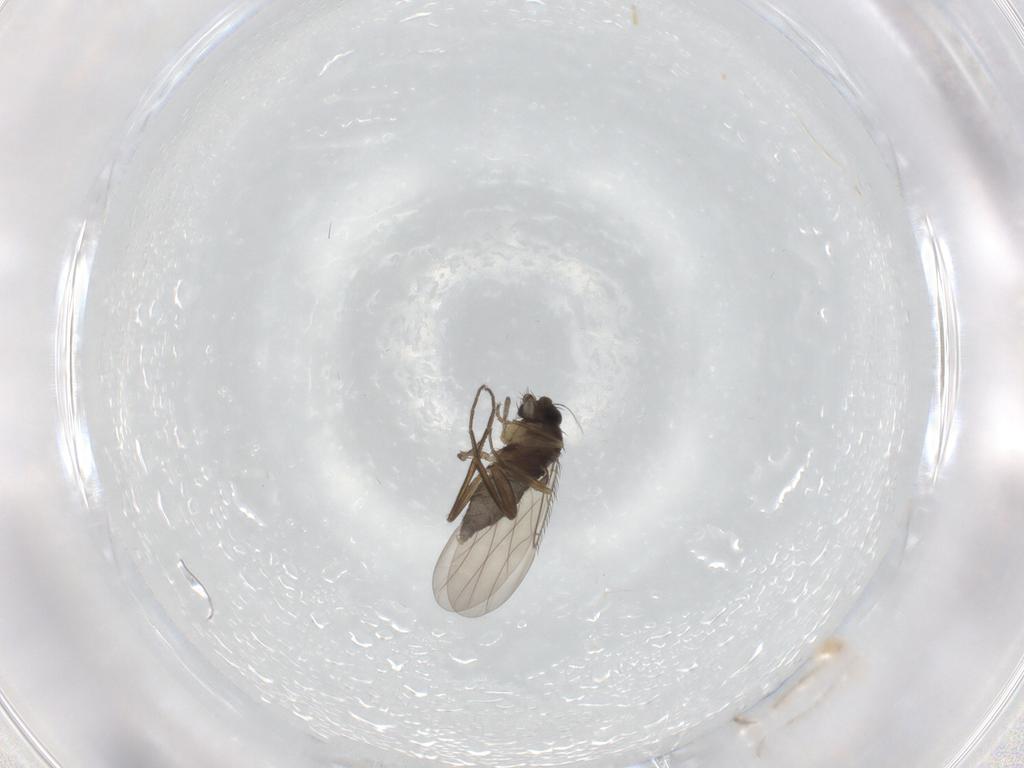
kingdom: Animalia
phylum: Arthropoda
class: Insecta
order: Diptera
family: Phoridae
